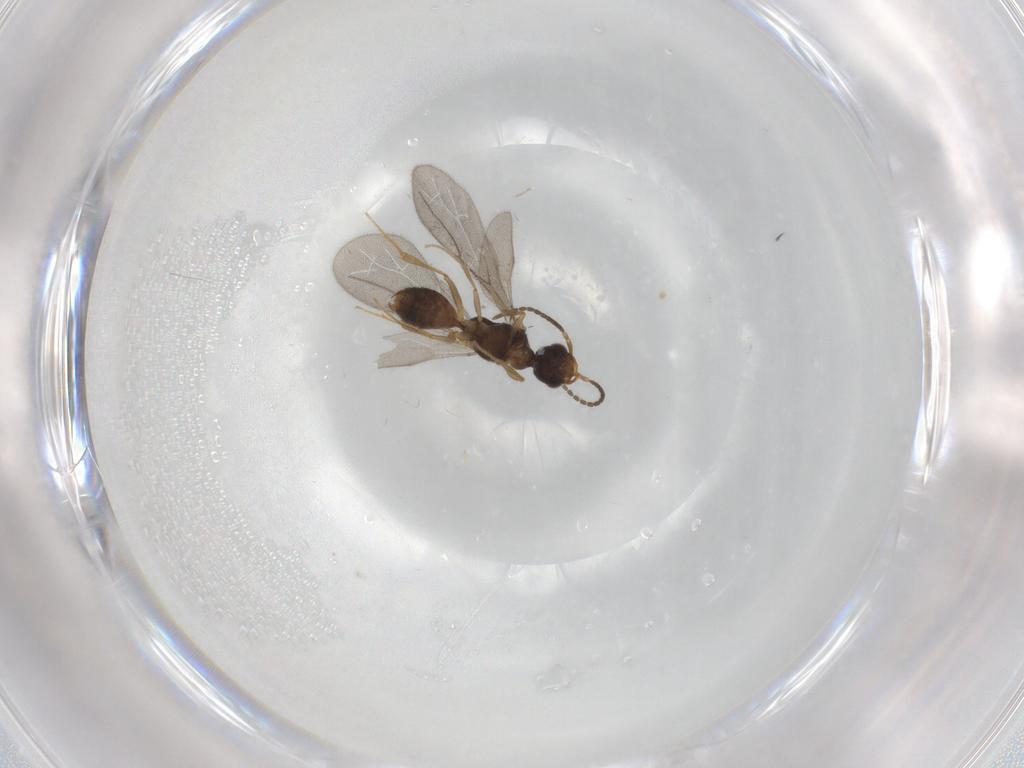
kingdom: Animalia
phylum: Arthropoda
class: Insecta
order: Hymenoptera
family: Bethylidae
